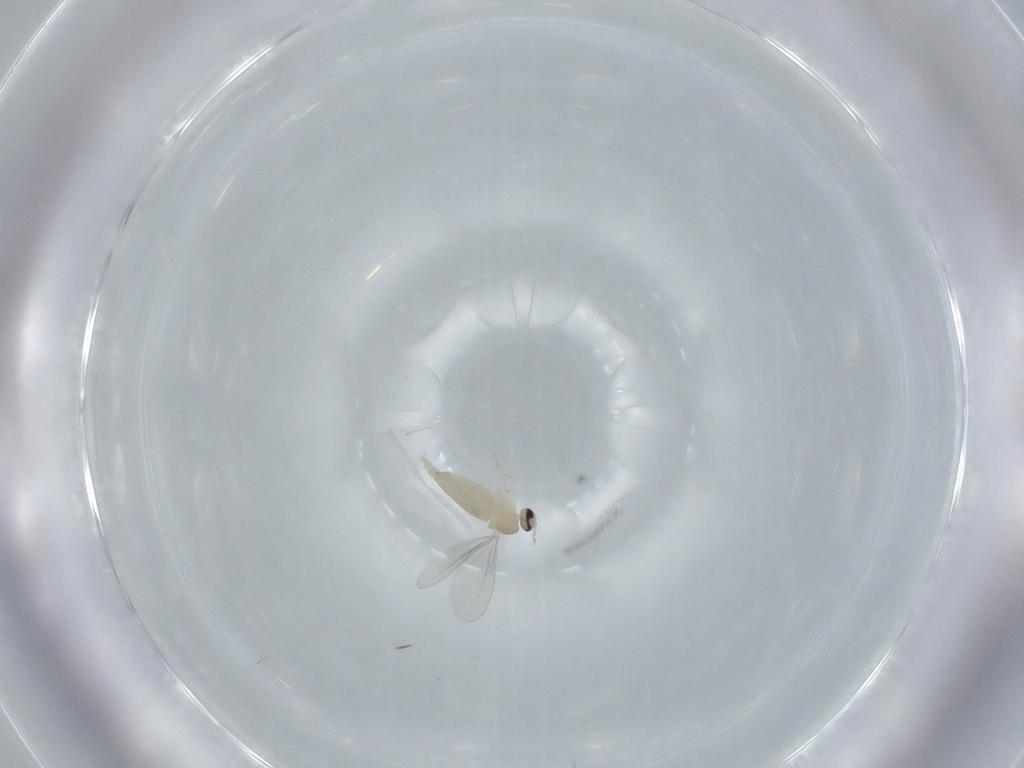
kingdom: Animalia
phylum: Arthropoda
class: Insecta
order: Diptera
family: Cecidomyiidae
